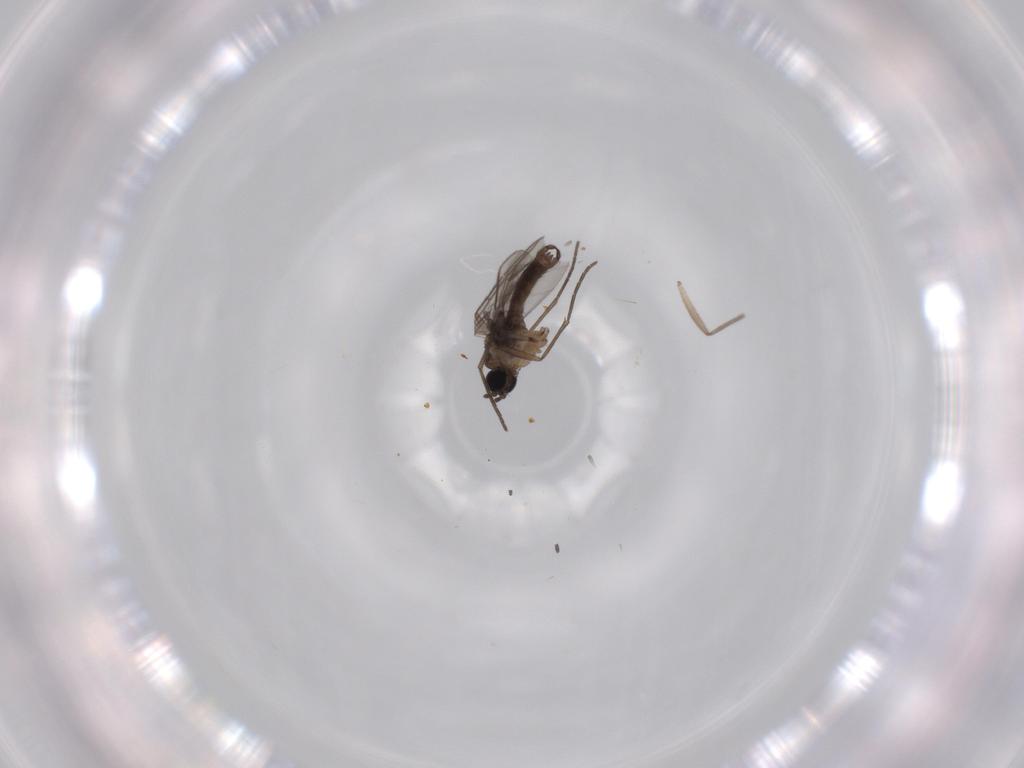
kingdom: Animalia
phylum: Arthropoda
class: Insecta
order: Diptera
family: Sciaridae
